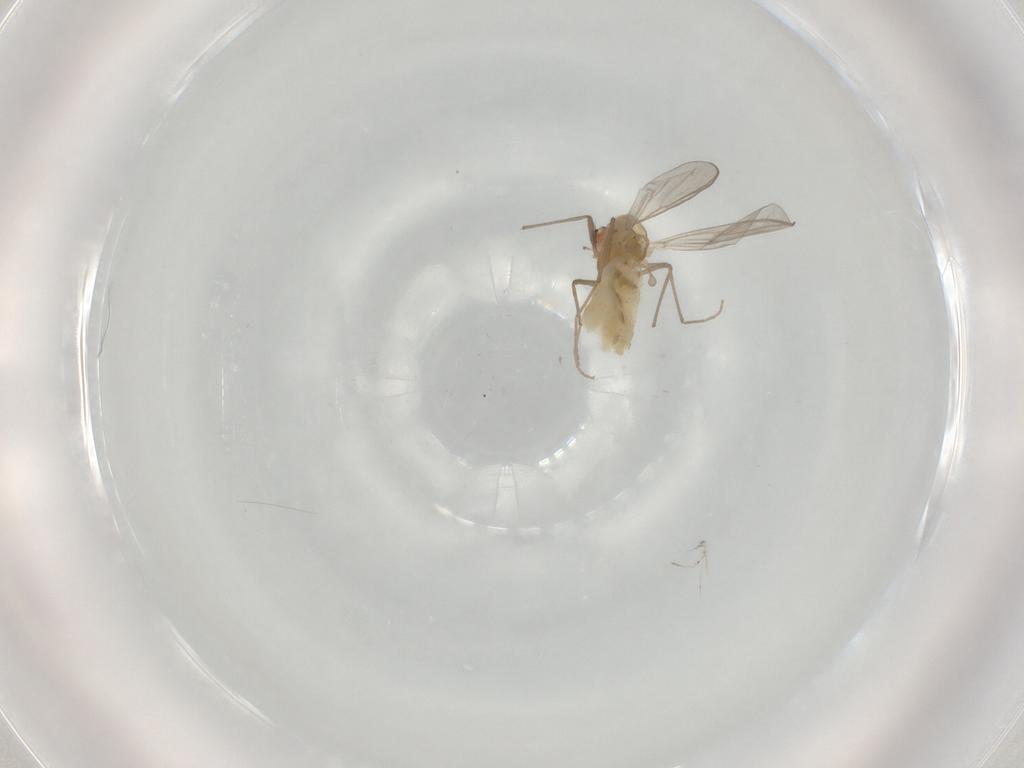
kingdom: Animalia
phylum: Arthropoda
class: Insecta
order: Diptera
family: Chironomidae
